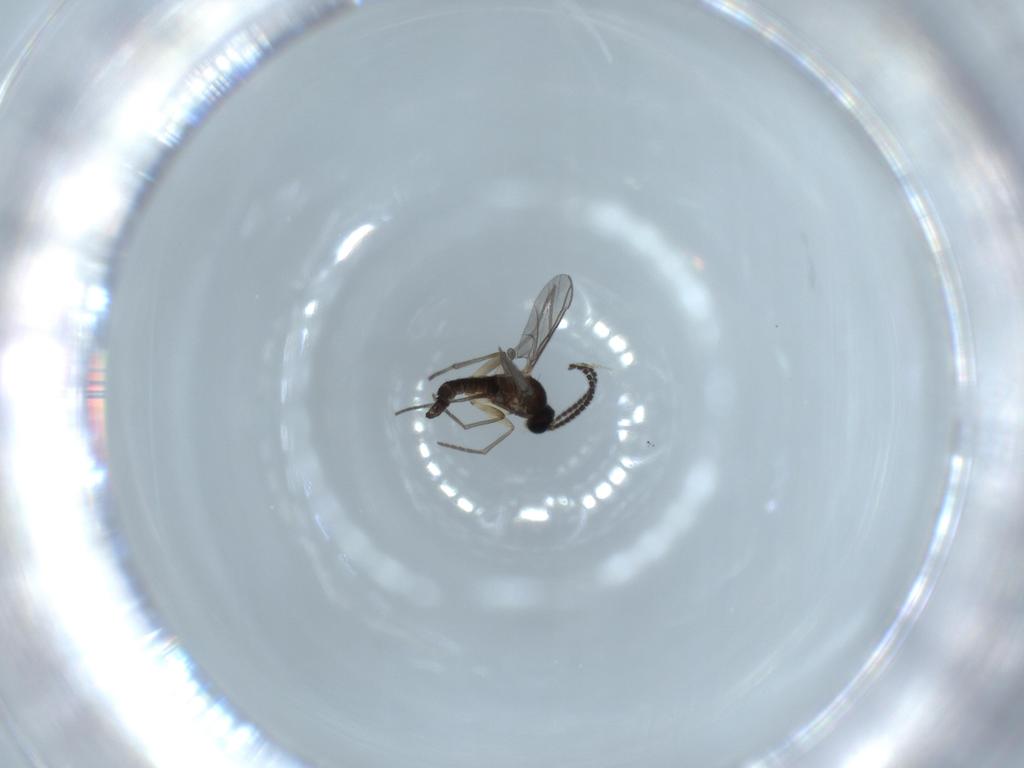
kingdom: Animalia
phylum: Arthropoda
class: Insecta
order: Diptera
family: Sciaridae
